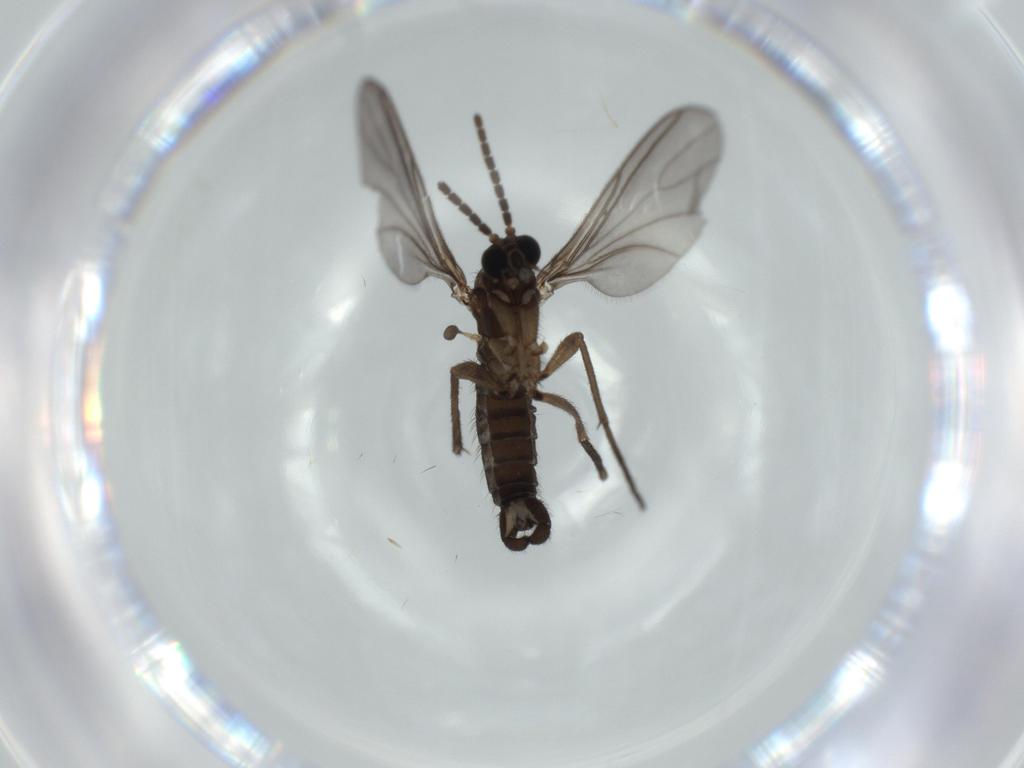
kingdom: Animalia
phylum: Arthropoda
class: Insecta
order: Diptera
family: Sciaridae
